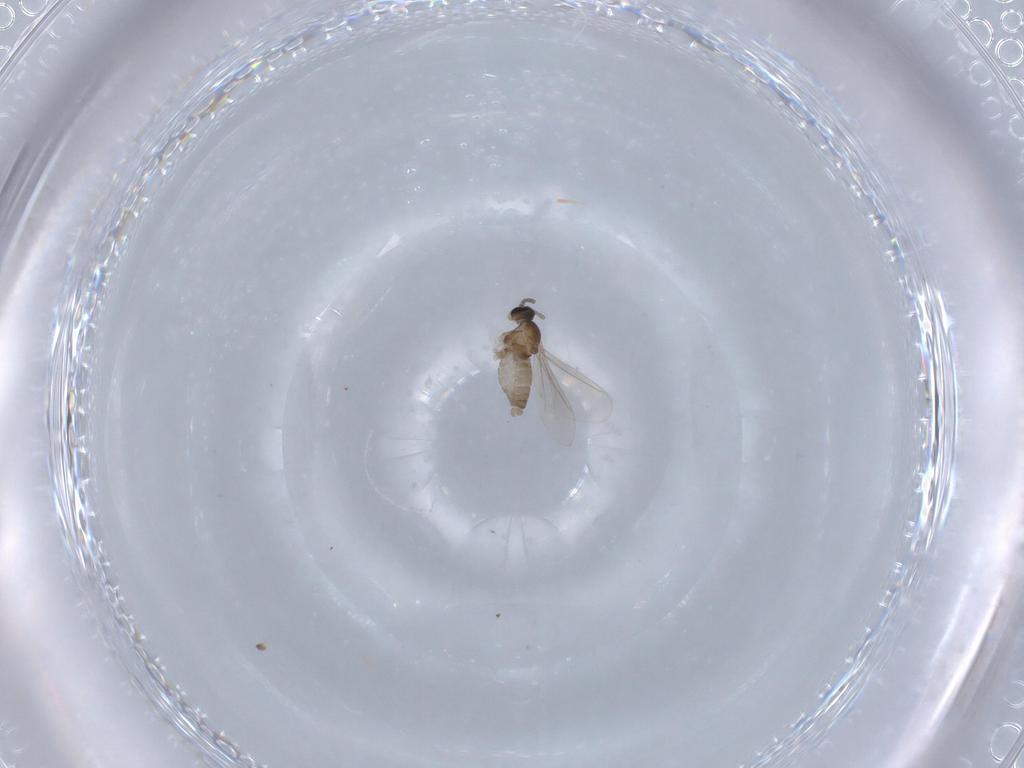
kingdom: Animalia
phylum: Arthropoda
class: Insecta
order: Diptera
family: Cecidomyiidae
